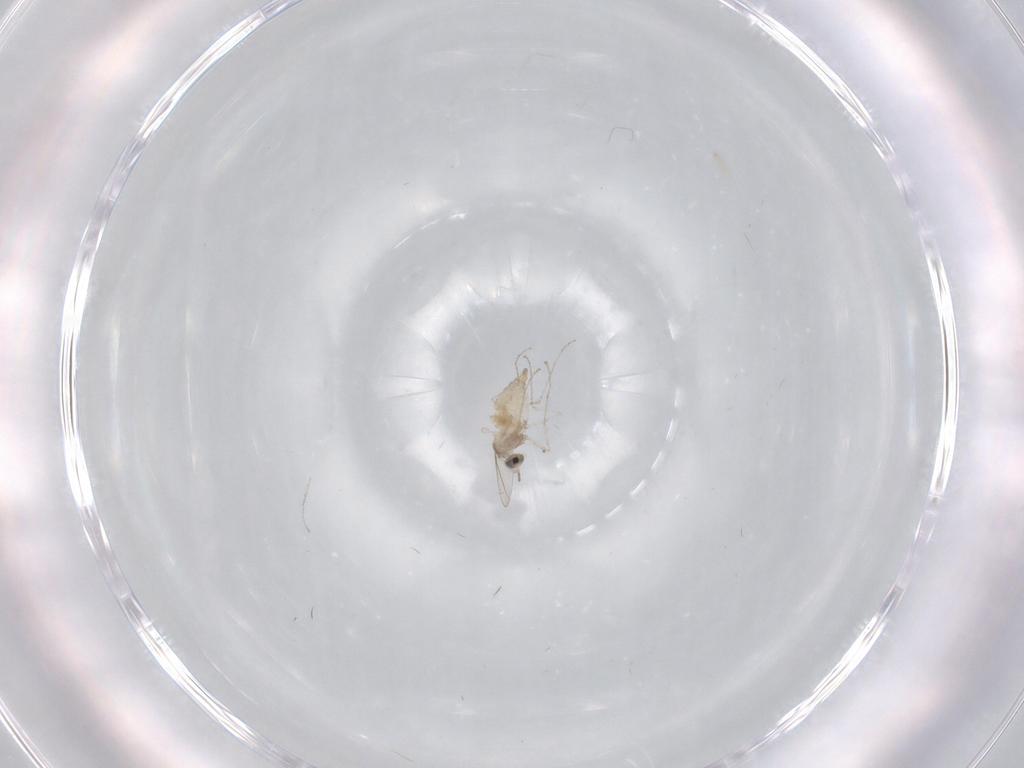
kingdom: Animalia
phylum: Arthropoda
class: Insecta
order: Diptera
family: Cecidomyiidae
